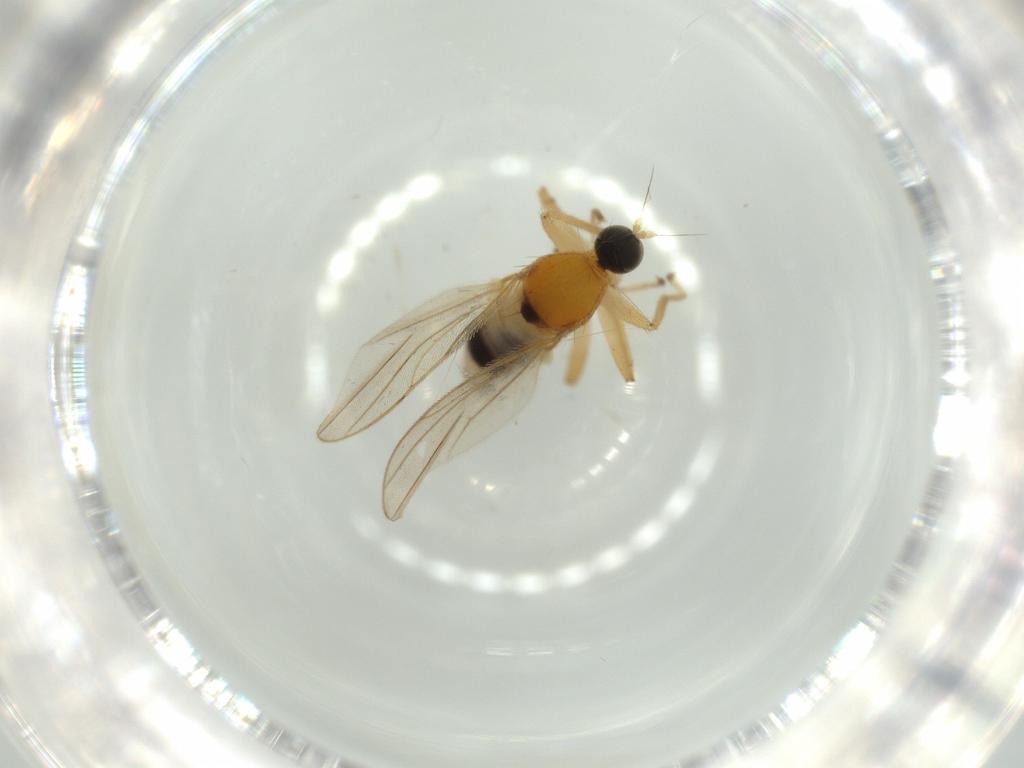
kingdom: Animalia
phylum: Arthropoda
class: Insecta
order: Diptera
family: Hybotidae
